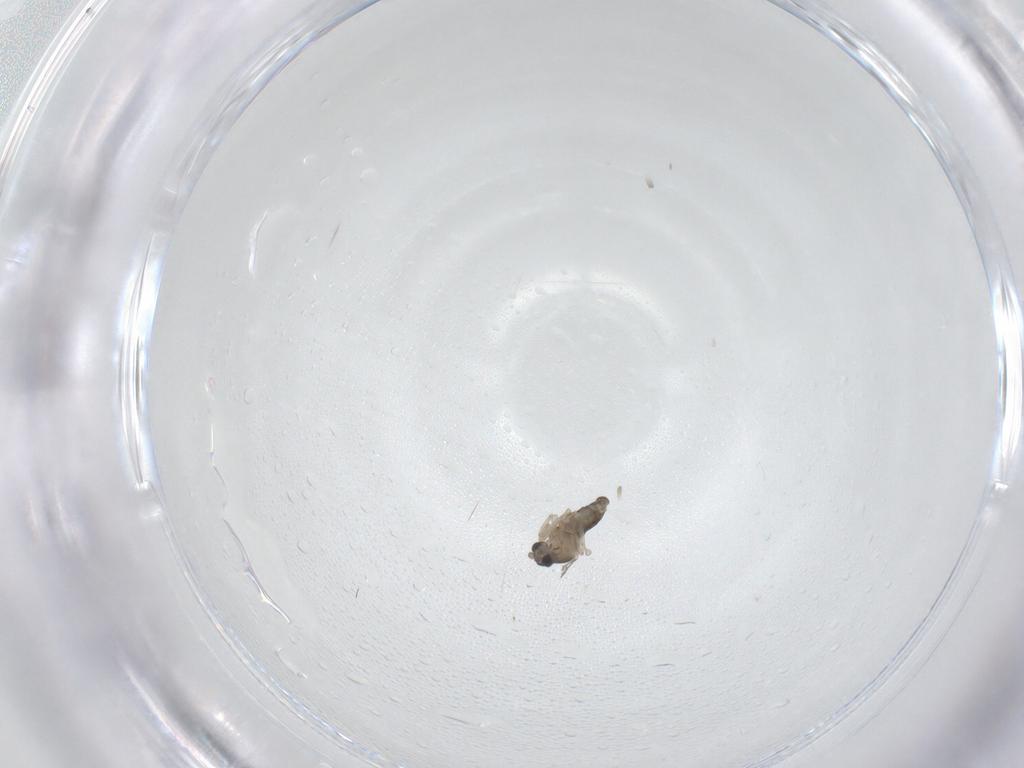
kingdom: Animalia
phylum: Arthropoda
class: Insecta
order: Diptera
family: Cecidomyiidae
